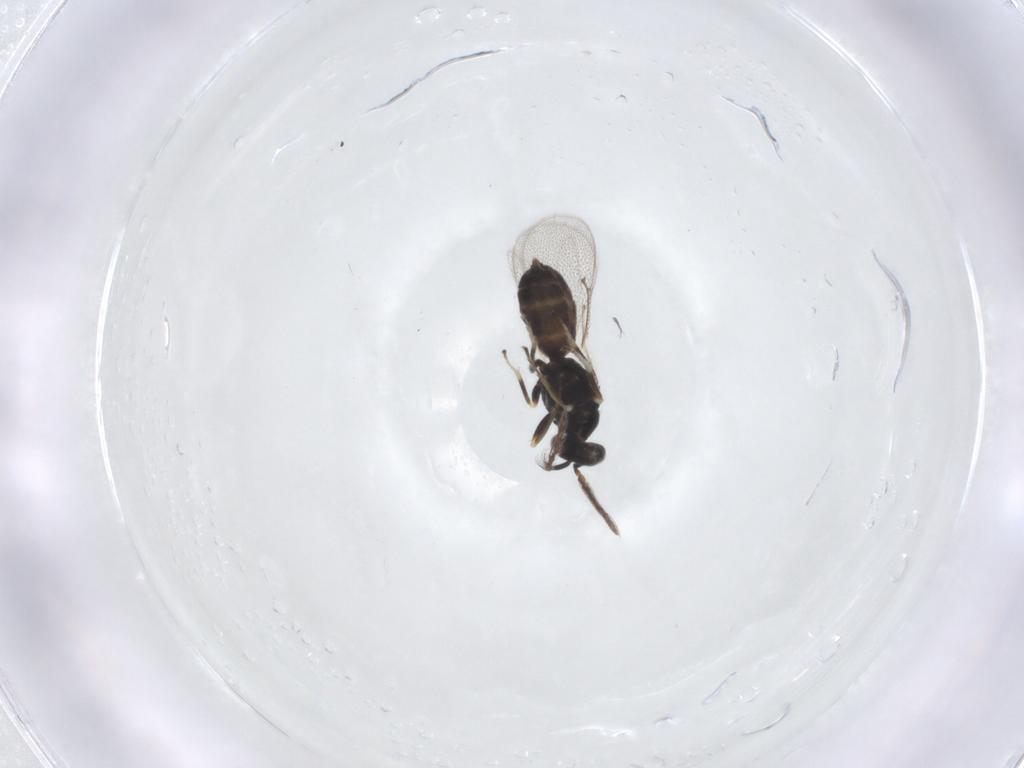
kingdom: Animalia
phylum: Arthropoda
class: Insecta
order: Hymenoptera
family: Eulophidae
